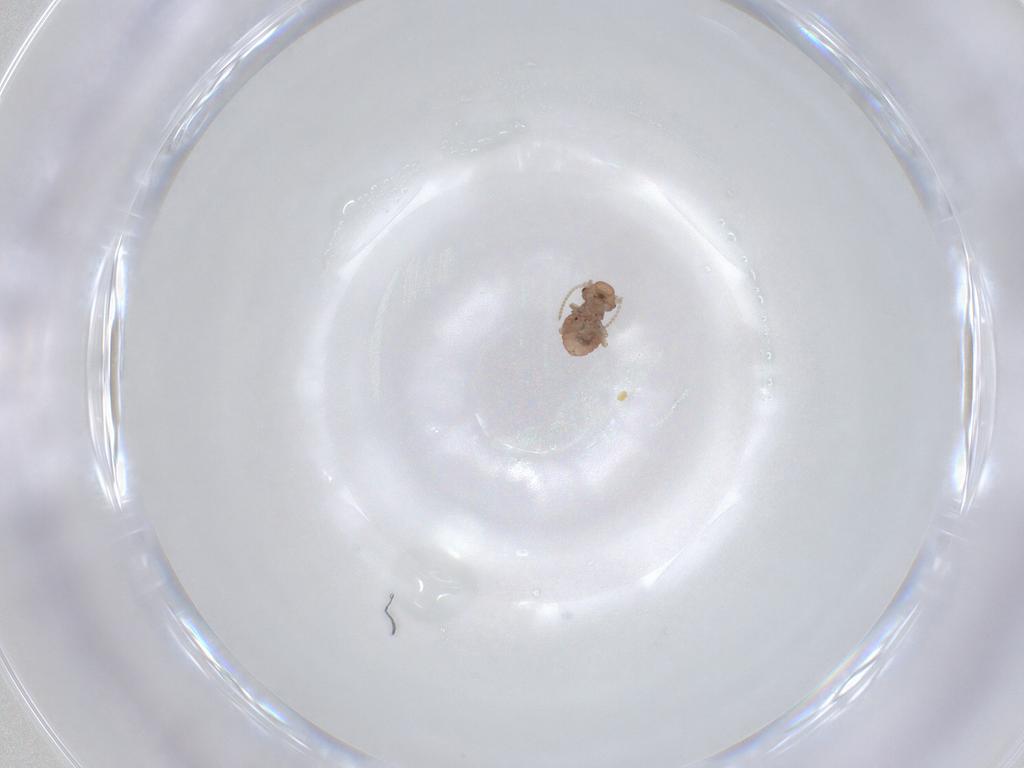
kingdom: Animalia
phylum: Arthropoda
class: Insecta
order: Psocodea
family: Peripsocidae
